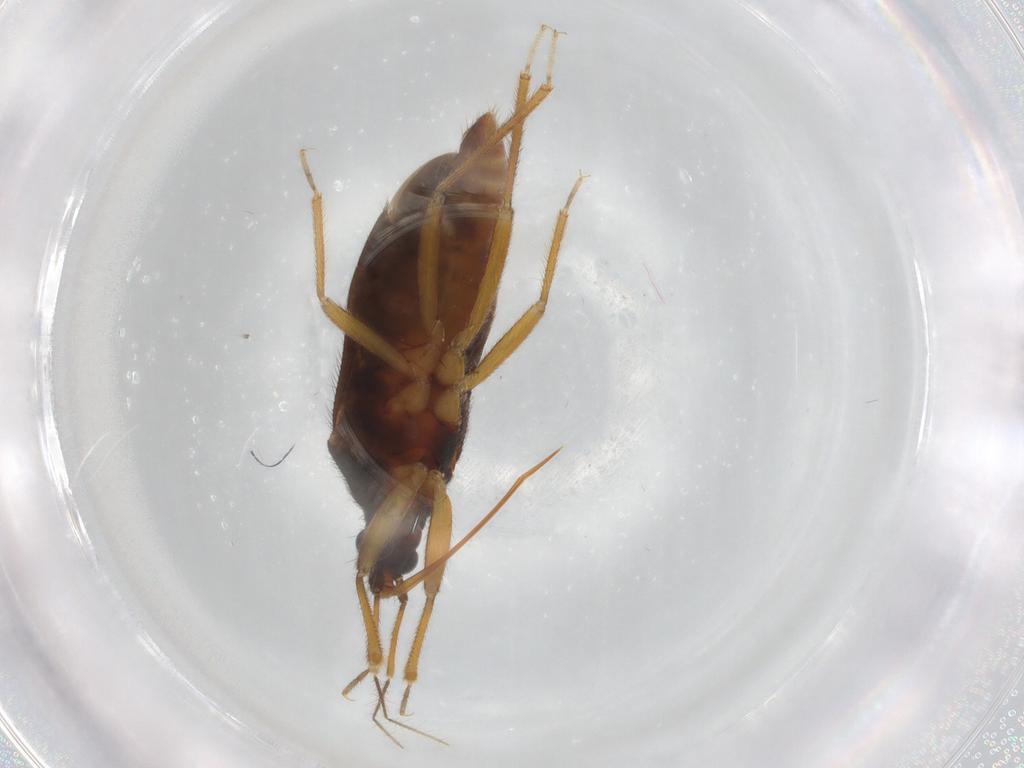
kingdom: Animalia
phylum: Arthropoda
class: Insecta
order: Hemiptera
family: Anthocoridae
